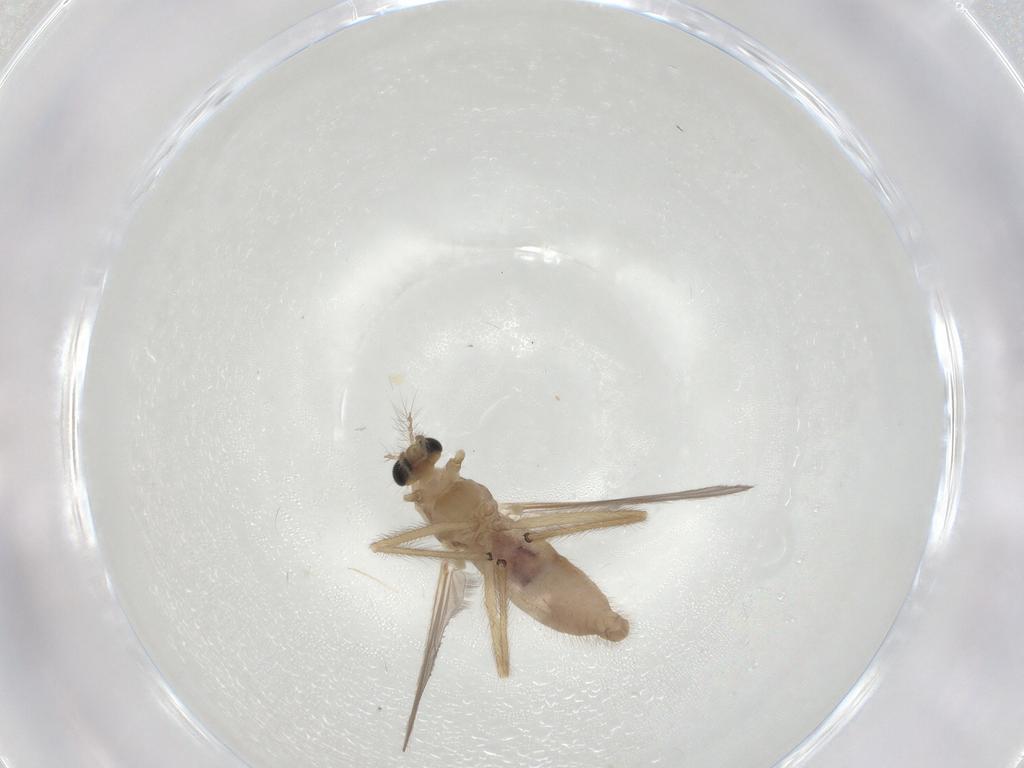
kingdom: Animalia
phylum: Arthropoda
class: Insecta
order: Diptera
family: Chironomidae
